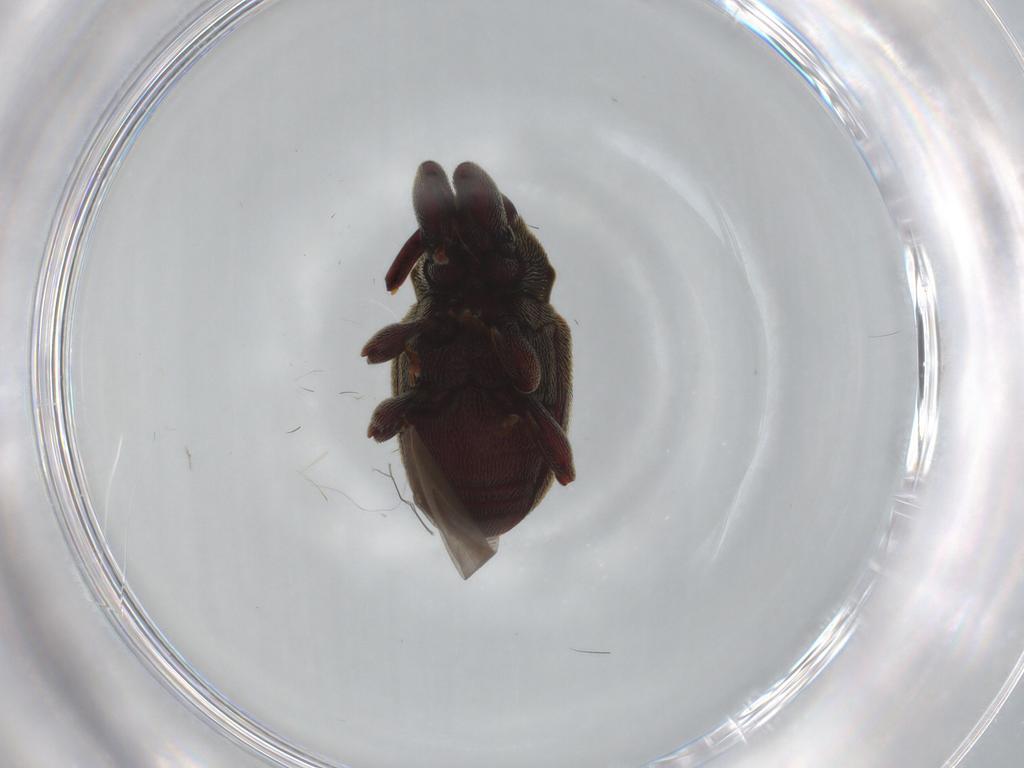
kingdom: Animalia
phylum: Arthropoda
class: Insecta
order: Coleoptera
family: Curculionidae
